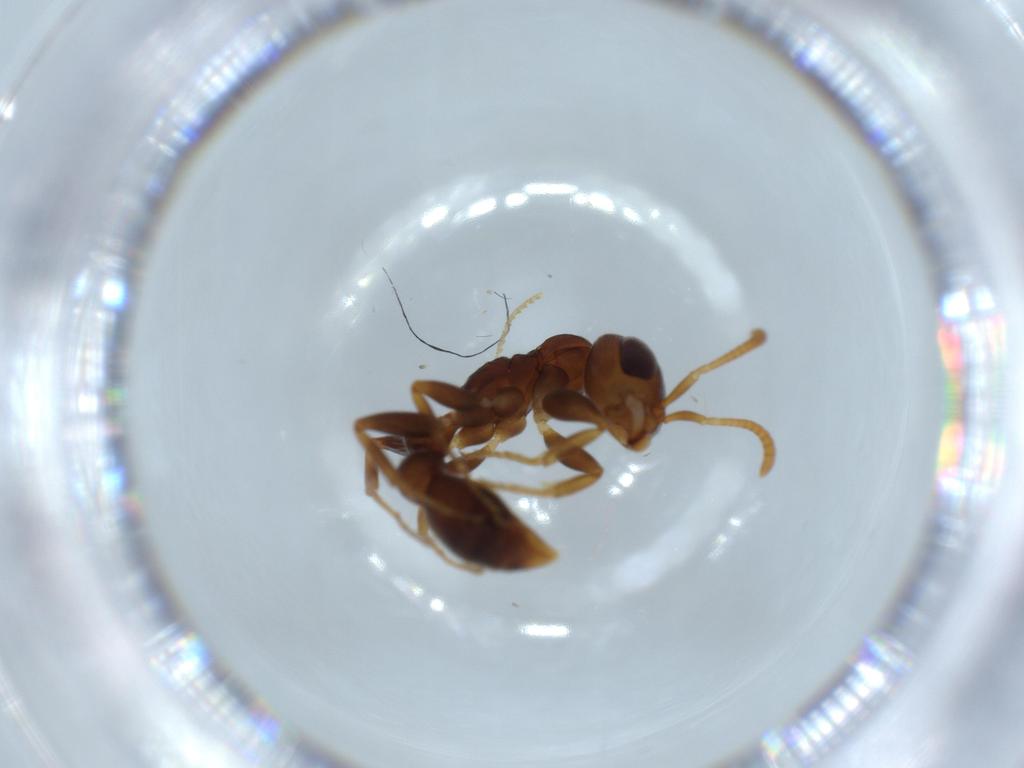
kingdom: Animalia
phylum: Arthropoda
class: Insecta
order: Hymenoptera
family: Formicidae
